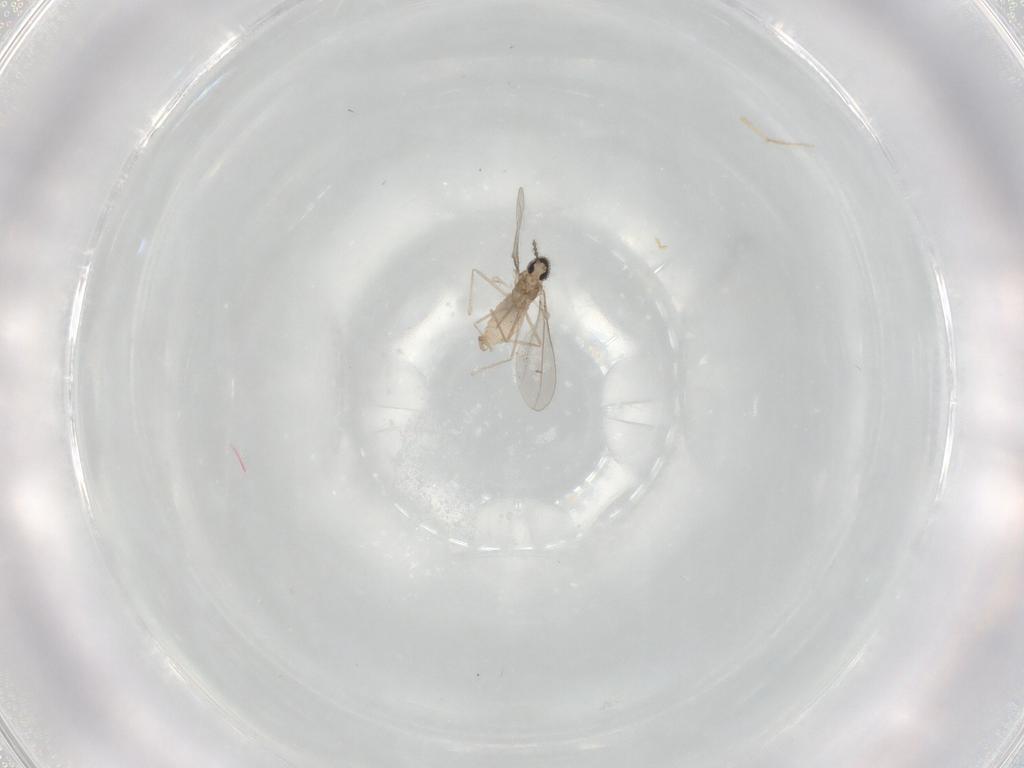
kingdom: Animalia
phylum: Arthropoda
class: Insecta
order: Diptera
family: Cecidomyiidae
